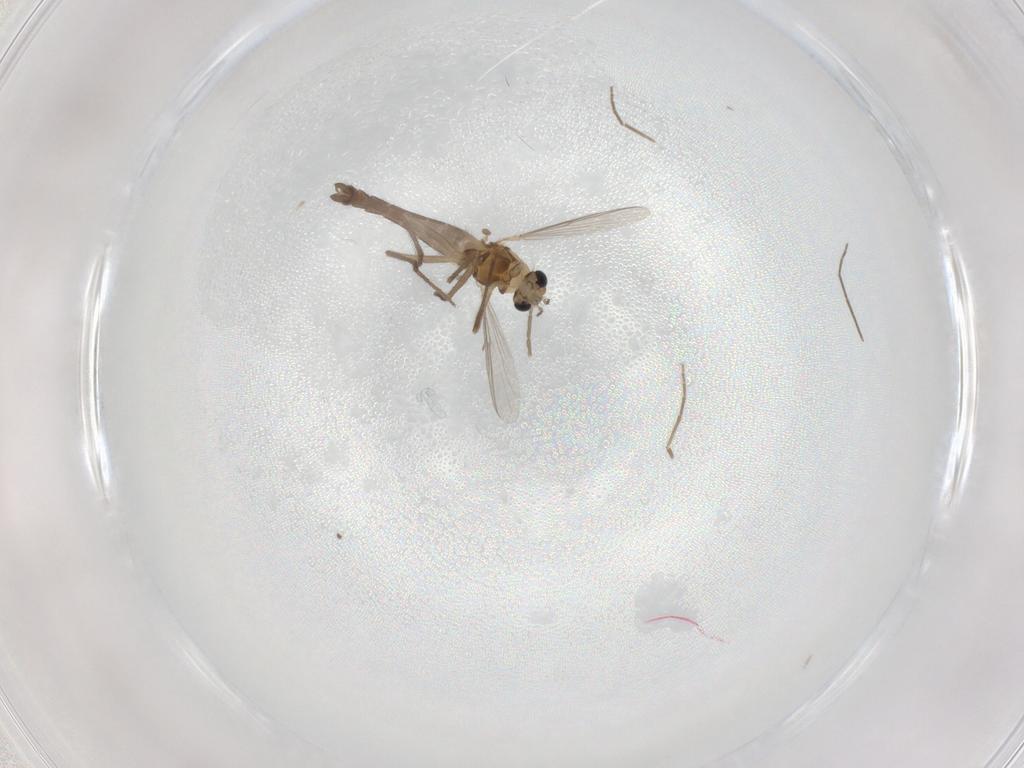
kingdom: Animalia
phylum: Arthropoda
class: Insecta
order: Diptera
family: Chironomidae
